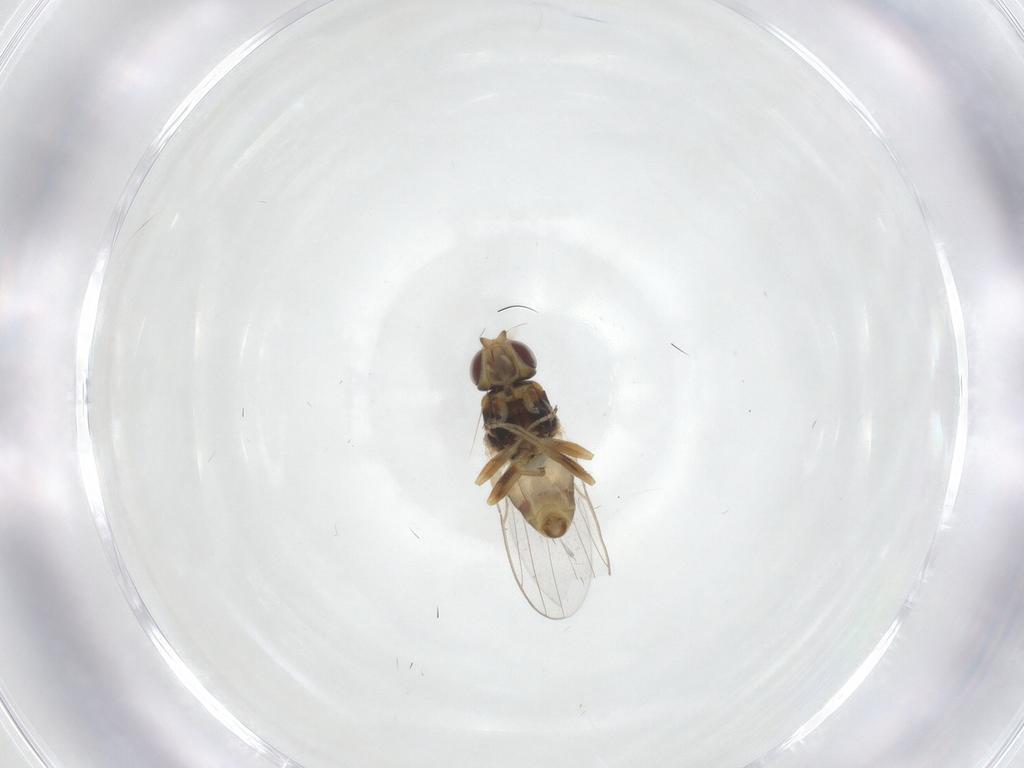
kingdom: Animalia
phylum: Arthropoda
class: Insecta
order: Diptera
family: Chloropidae
